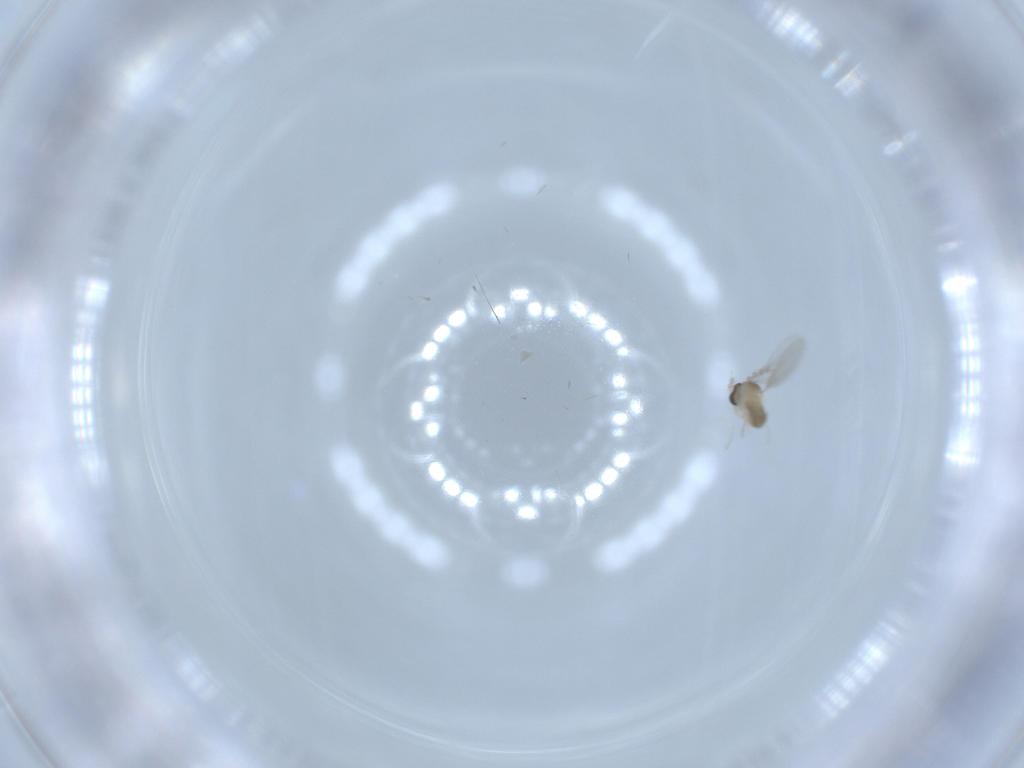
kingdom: Animalia
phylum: Arthropoda
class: Insecta
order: Diptera
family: Cecidomyiidae
